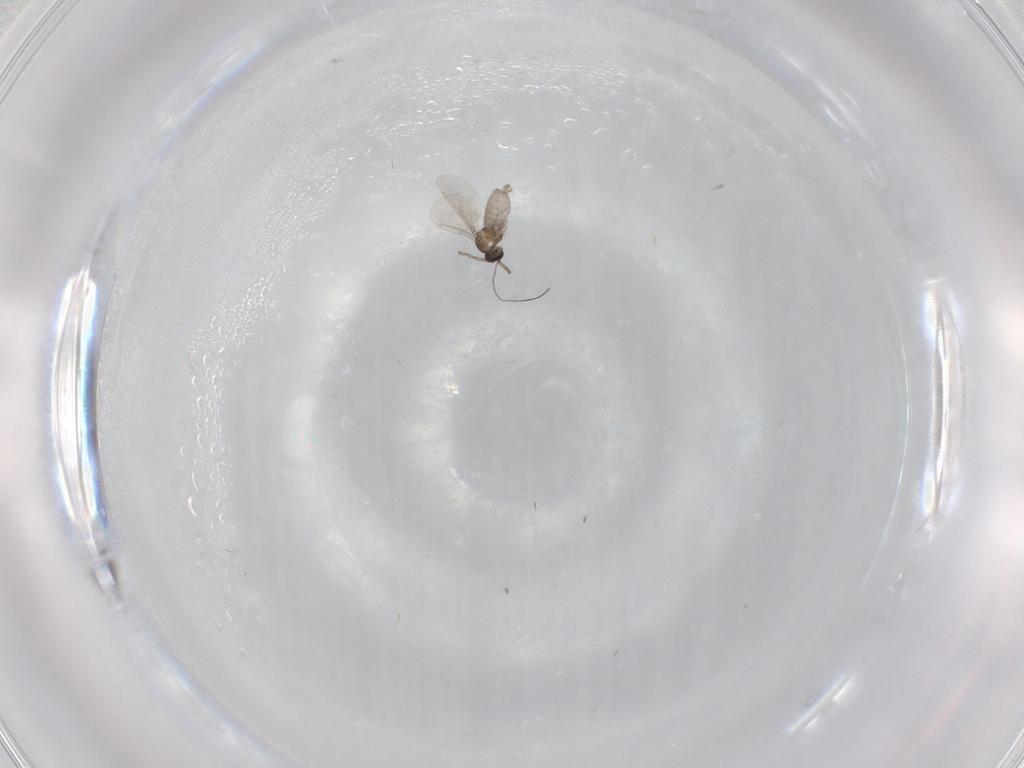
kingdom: Animalia
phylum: Arthropoda
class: Insecta
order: Diptera
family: Cecidomyiidae
